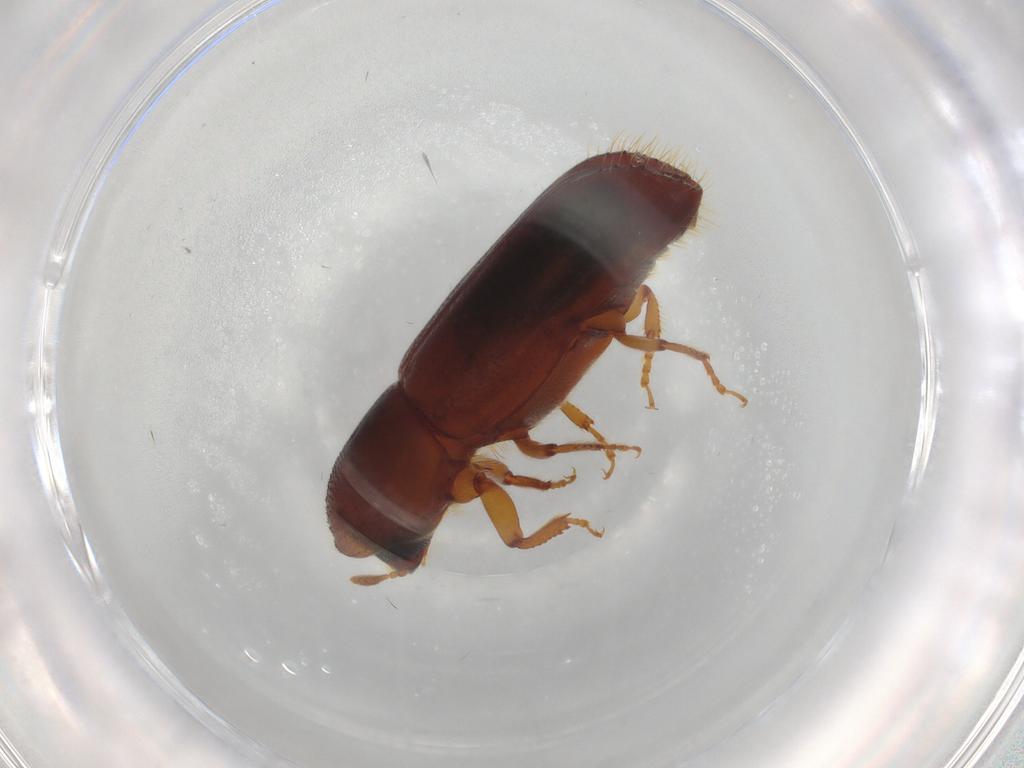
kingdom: Animalia
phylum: Arthropoda
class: Insecta
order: Coleoptera
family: Curculionidae
